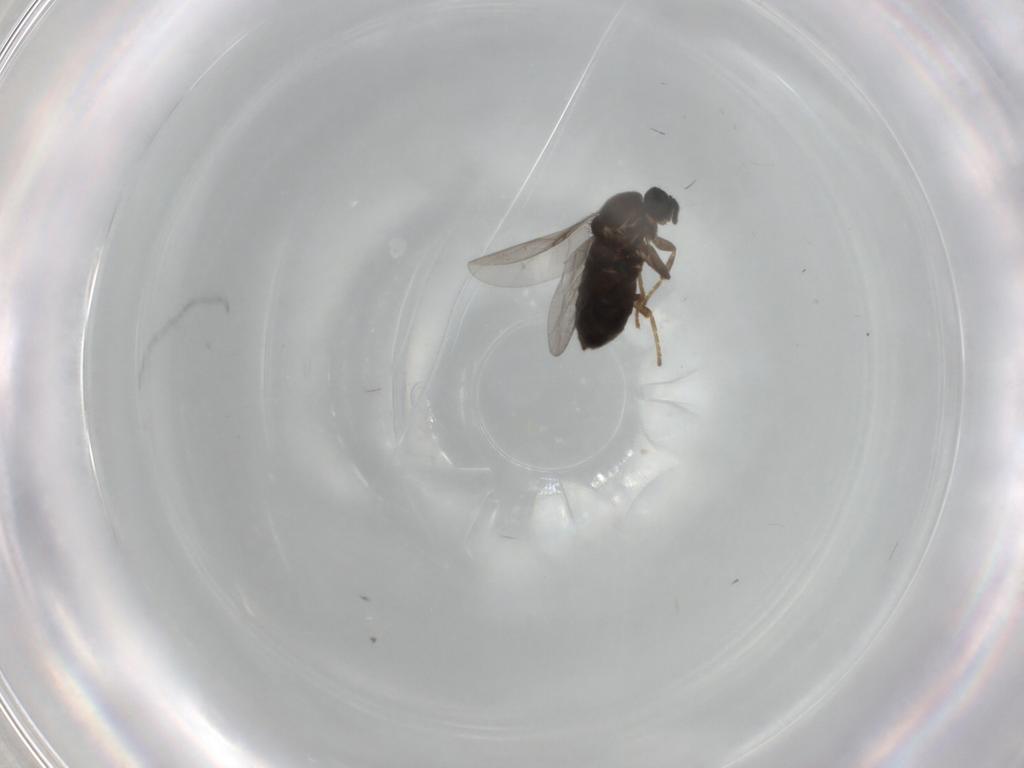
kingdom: Animalia
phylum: Arthropoda
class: Insecta
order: Diptera
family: Scatopsidae
